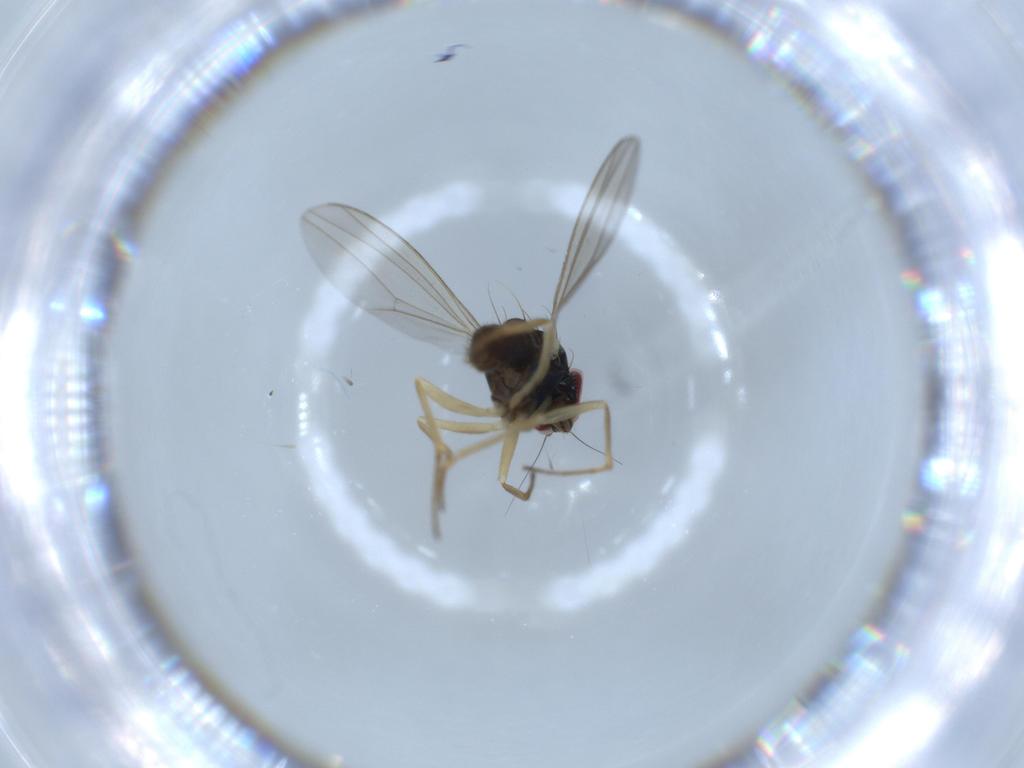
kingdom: Animalia
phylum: Arthropoda
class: Insecta
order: Diptera
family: Dolichopodidae
